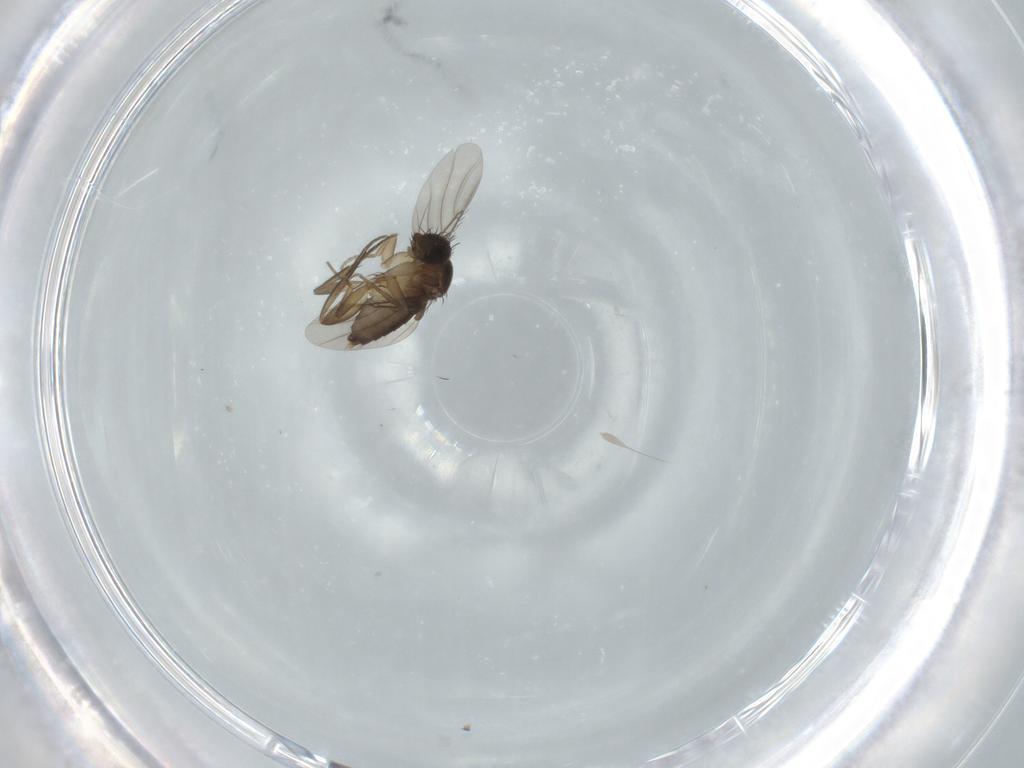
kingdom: Animalia
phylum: Arthropoda
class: Insecta
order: Diptera
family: Phoridae
